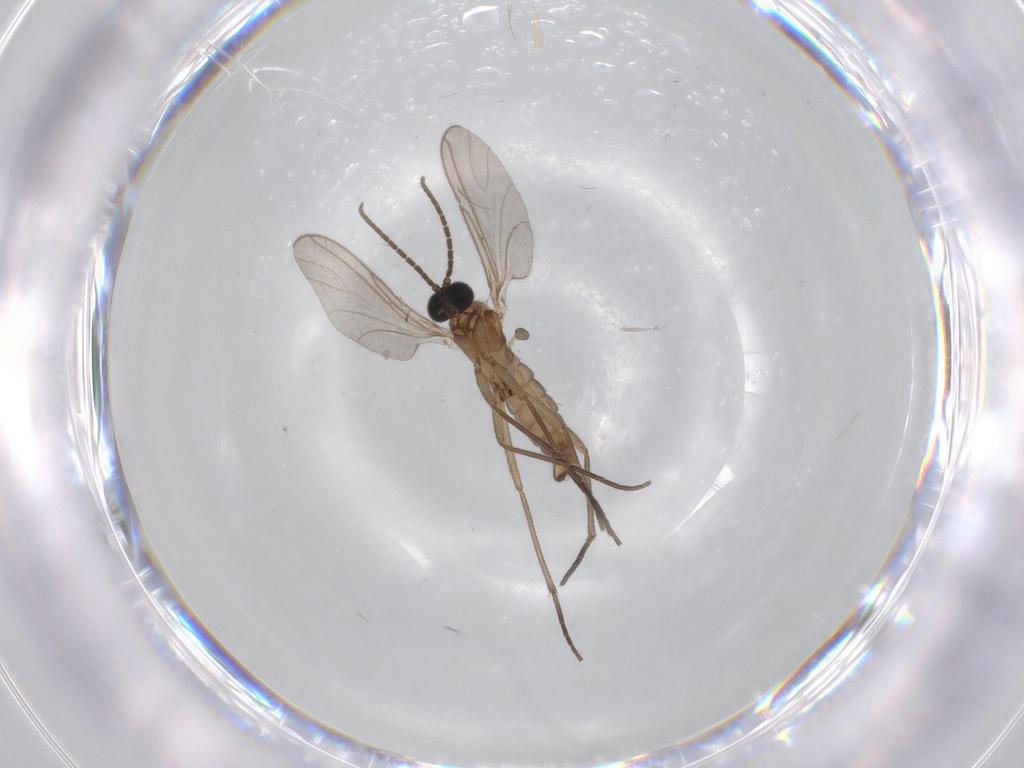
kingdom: Animalia
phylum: Arthropoda
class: Insecta
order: Diptera
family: Sciaridae
